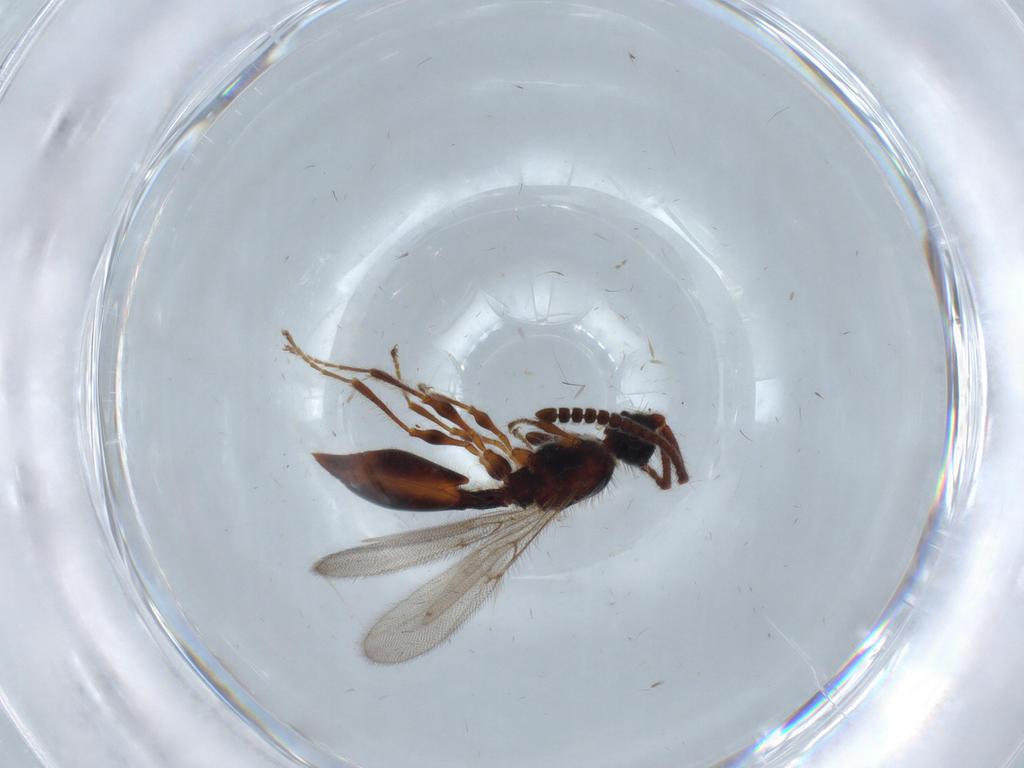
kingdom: Animalia
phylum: Arthropoda
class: Insecta
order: Hymenoptera
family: Diapriidae
